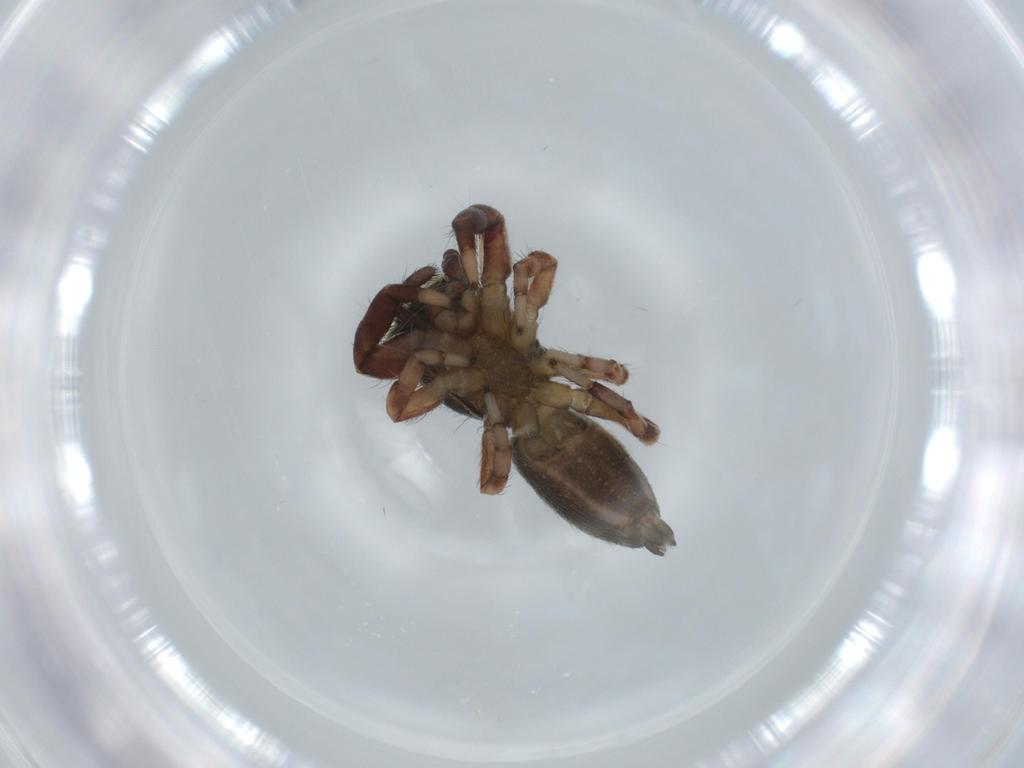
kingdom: Animalia
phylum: Arthropoda
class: Arachnida
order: Araneae
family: Salticidae
